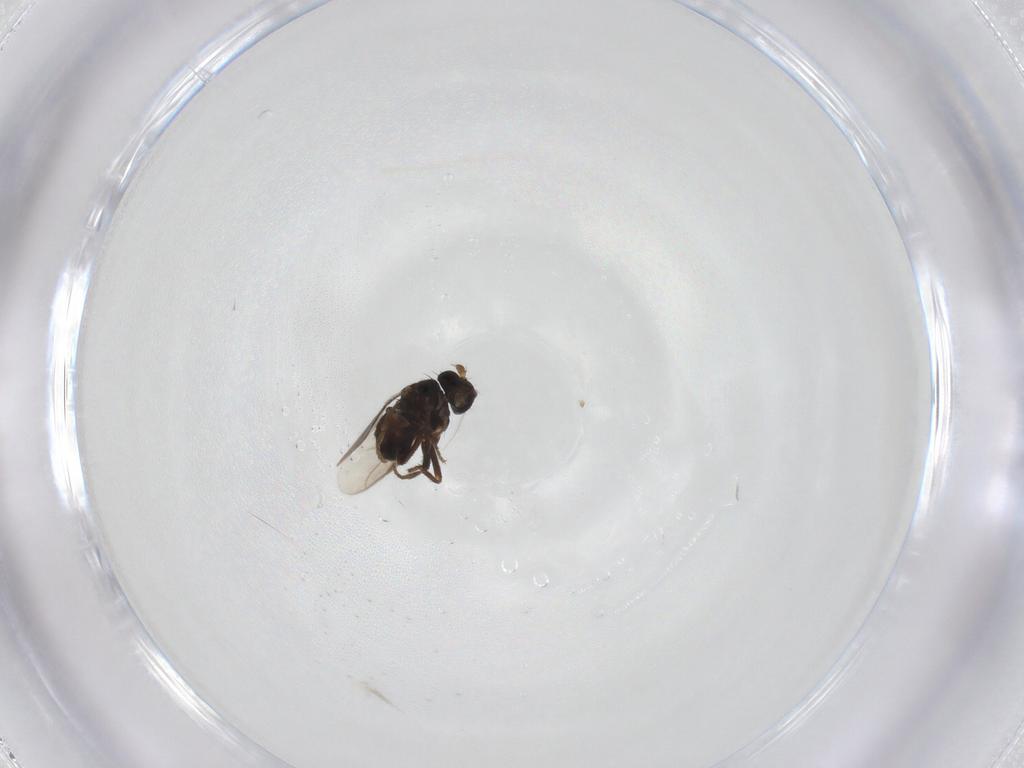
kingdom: Animalia
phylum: Arthropoda
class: Insecta
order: Diptera
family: Sphaeroceridae
